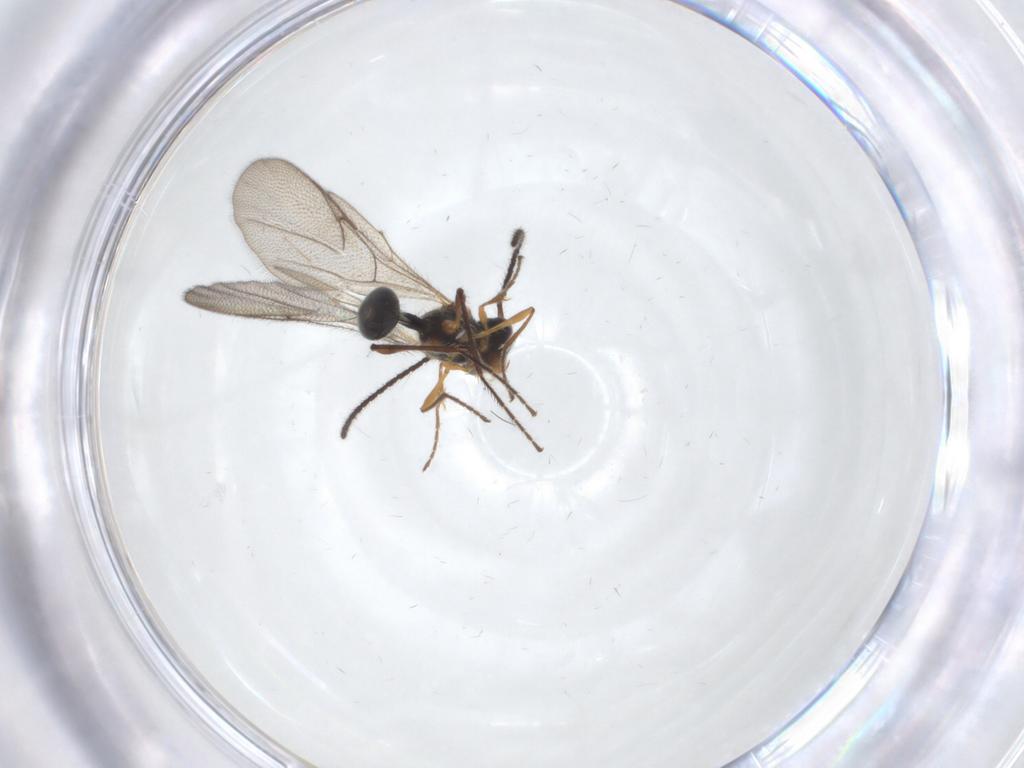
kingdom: Animalia
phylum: Arthropoda
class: Insecta
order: Hymenoptera
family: Diapriidae
